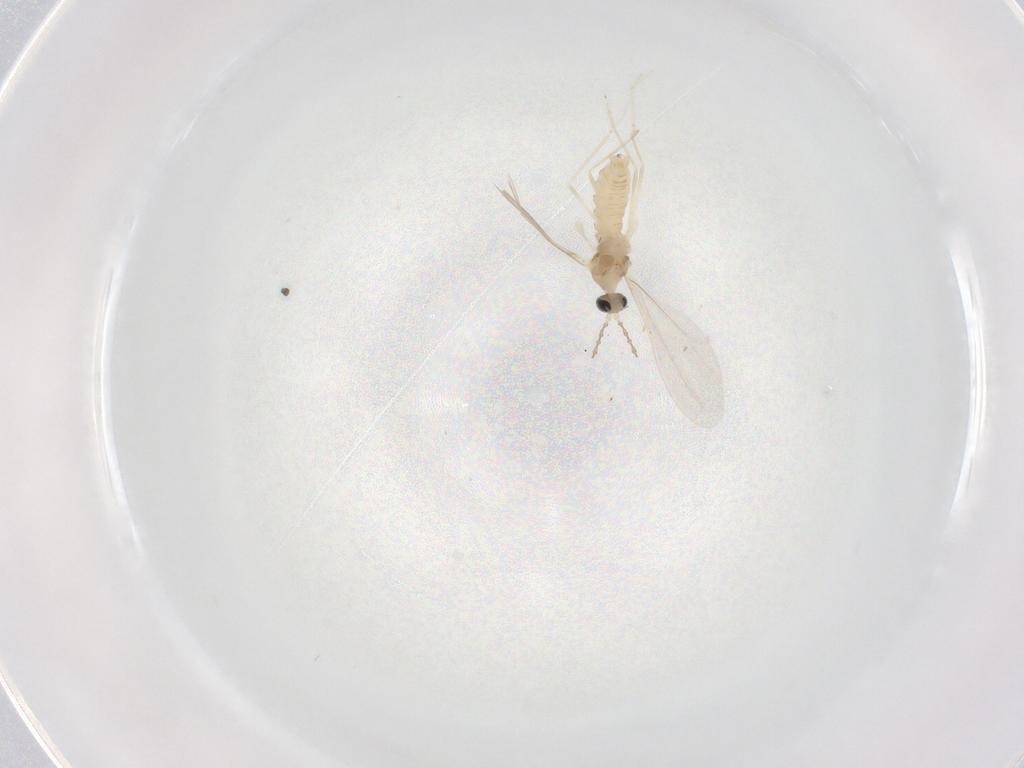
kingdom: Animalia
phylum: Arthropoda
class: Insecta
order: Diptera
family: Cecidomyiidae
